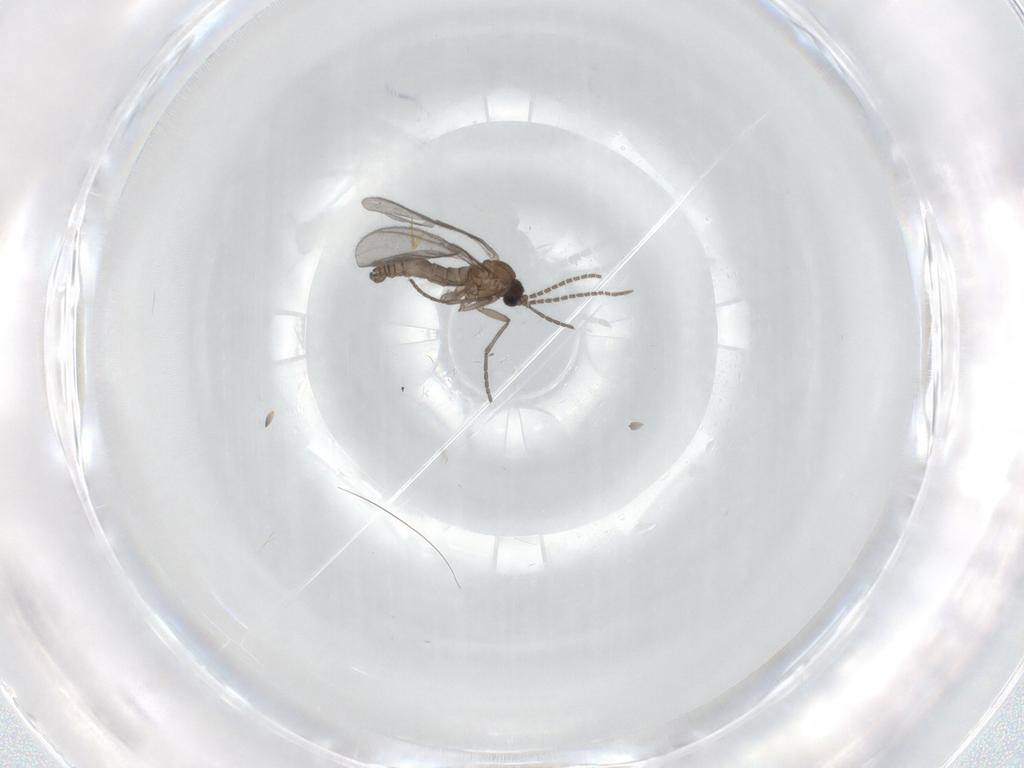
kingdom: Animalia
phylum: Arthropoda
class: Insecta
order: Diptera
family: Sciaridae
